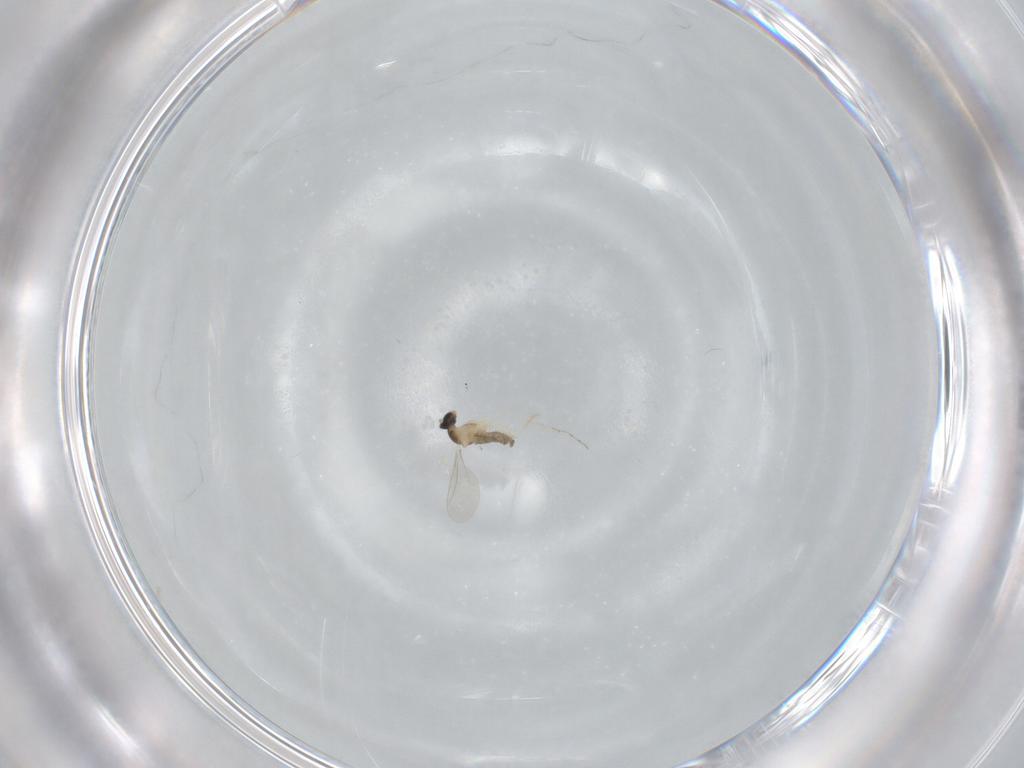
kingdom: Animalia
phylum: Arthropoda
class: Insecta
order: Diptera
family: Cecidomyiidae
